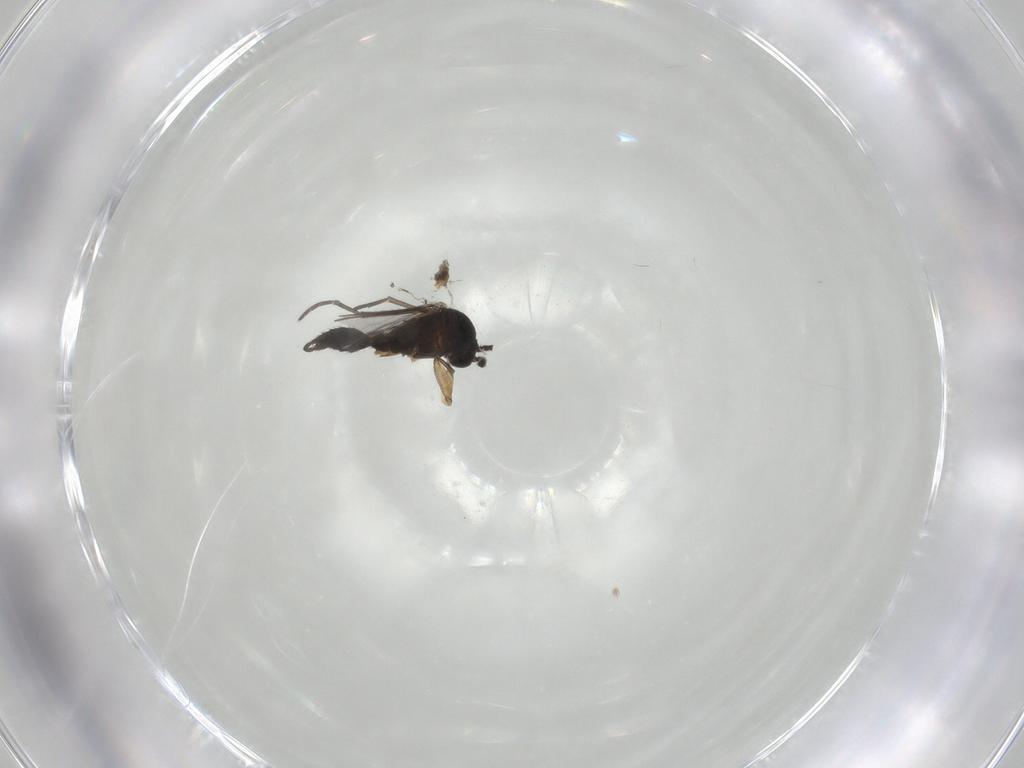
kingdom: Animalia
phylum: Arthropoda
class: Insecta
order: Diptera
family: Sciaridae
